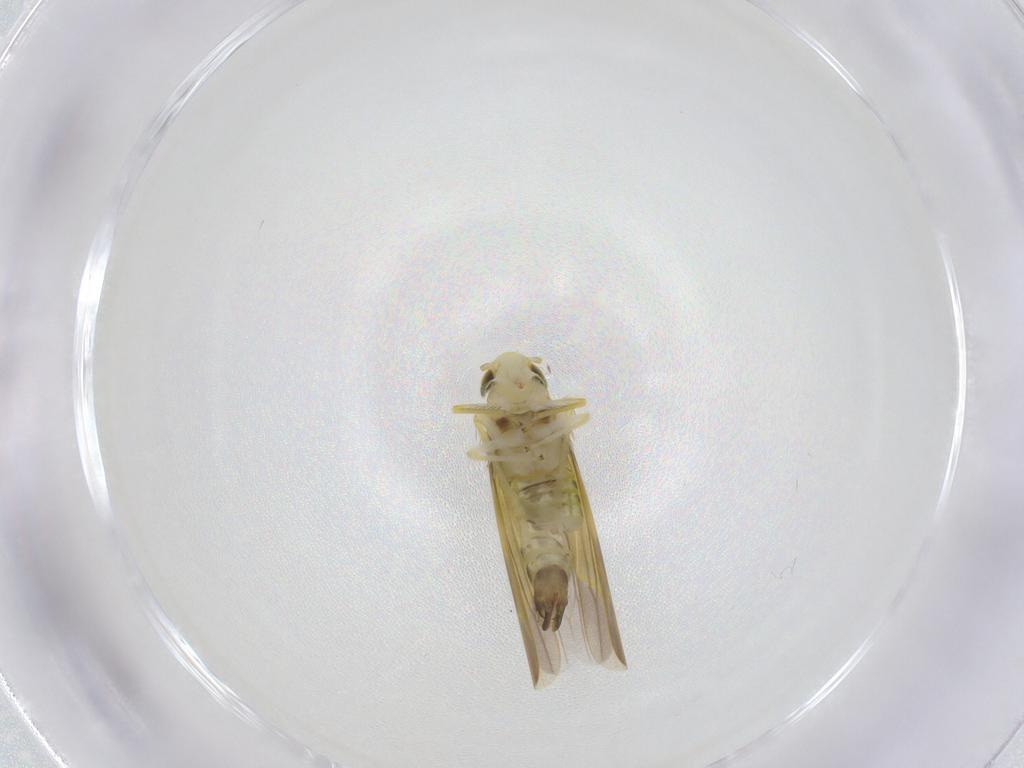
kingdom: Animalia
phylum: Arthropoda
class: Insecta
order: Hemiptera
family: Cicadellidae
